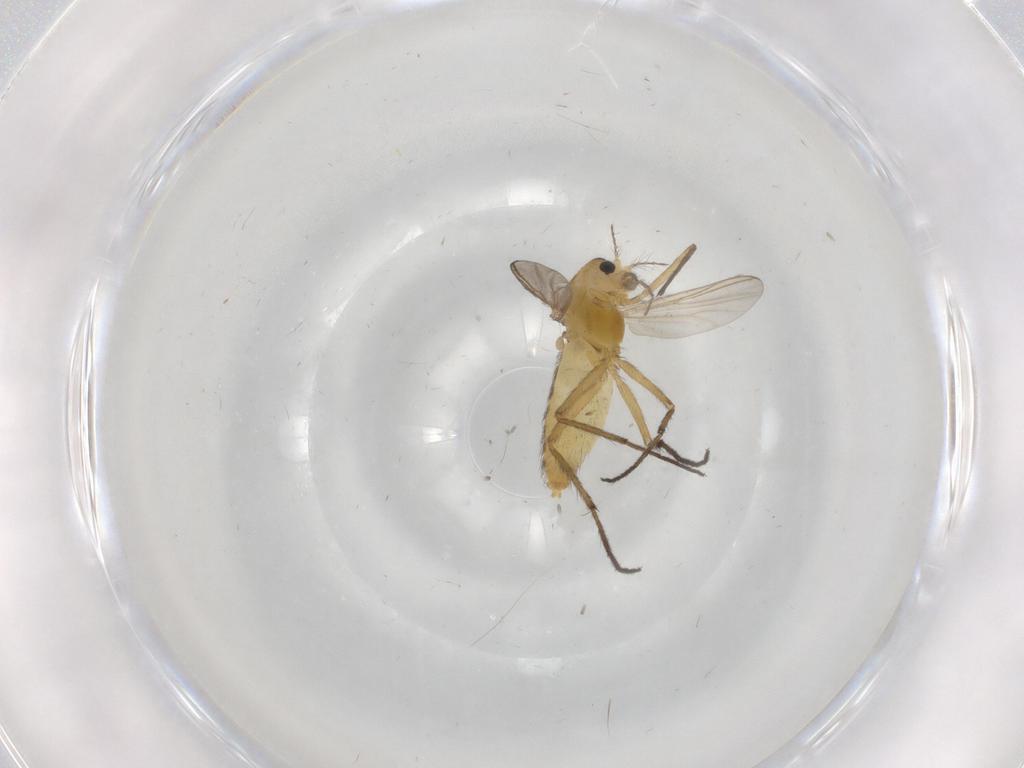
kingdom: Animalia
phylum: Arthropoda
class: Insecta
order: Diptera
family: Chironomidae
